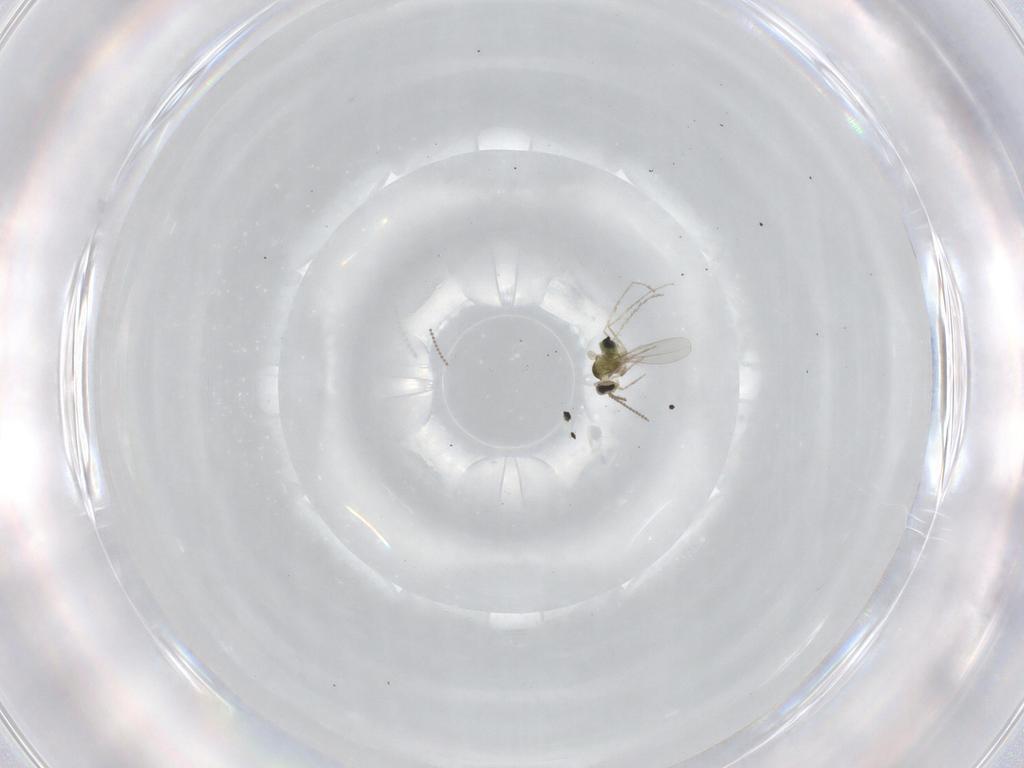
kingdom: Animalia
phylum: Arthropoda
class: Insecta
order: Diptera
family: Cecidomyiidae
